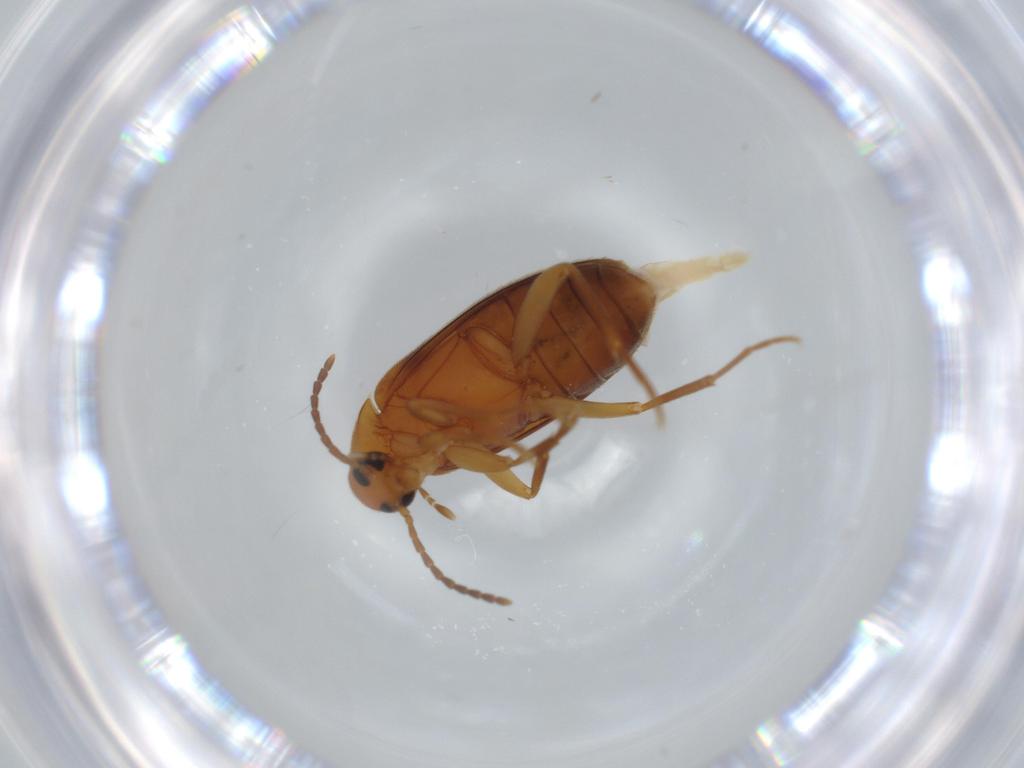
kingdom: Animalia
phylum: Arthropoda
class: Insecta
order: Coleoptera
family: Scraptiidae
